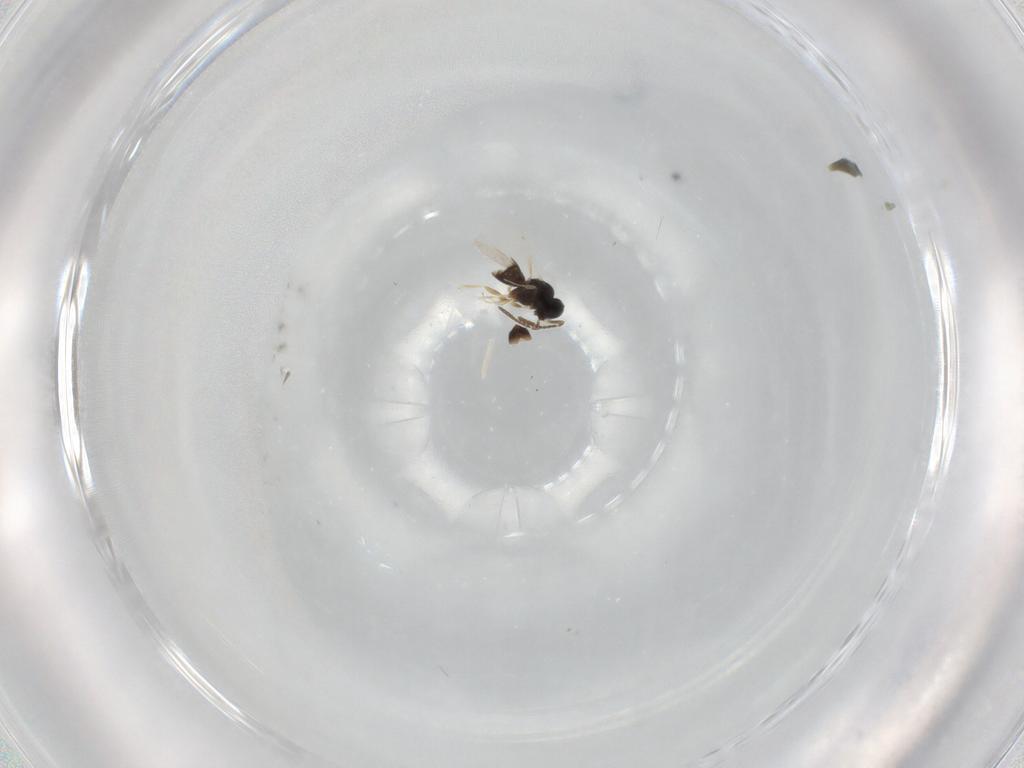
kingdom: Animalia
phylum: Arthropoda
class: Insecta
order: Hymenoptera
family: Scelionidae
